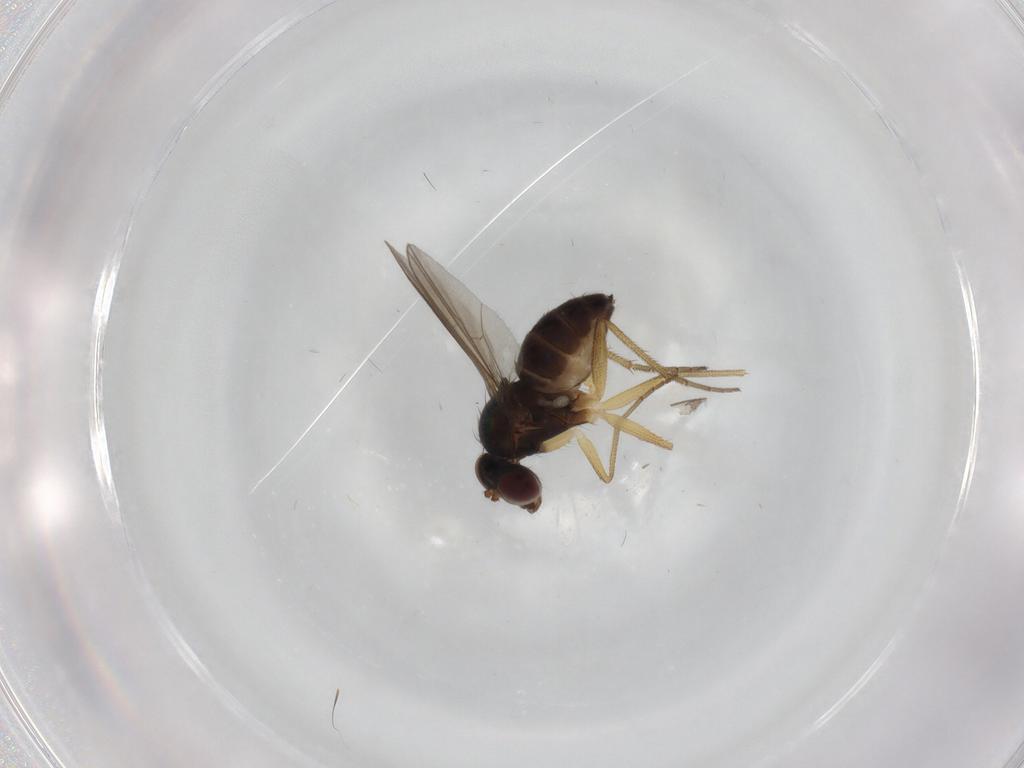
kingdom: Animalia
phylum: Arthropoda
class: Insecta
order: Diptera
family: Dolichopodidae
